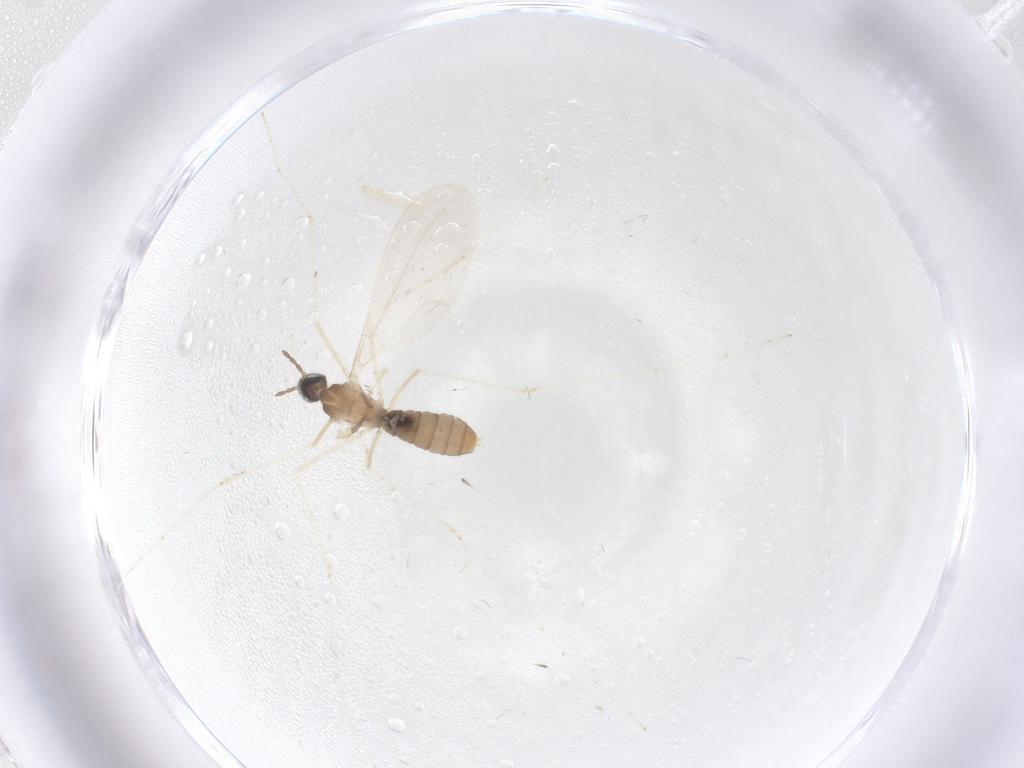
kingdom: Animalia
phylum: Arthropoda
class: Insecta
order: Diptera
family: Cecidomyiidae
